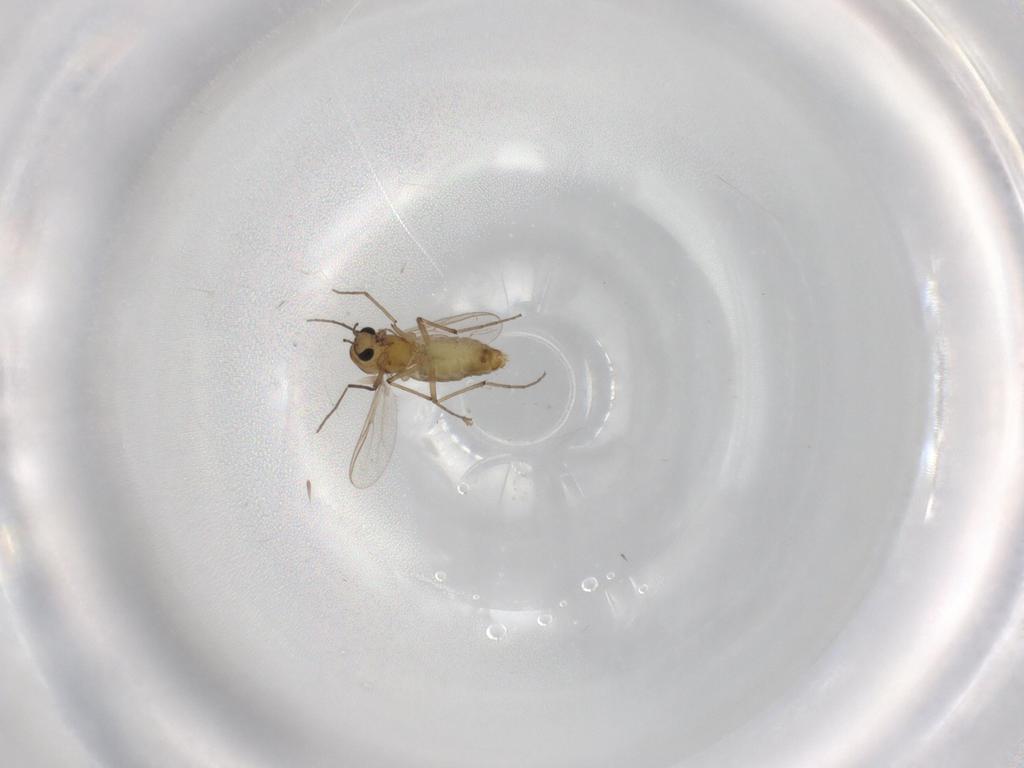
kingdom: Animalia
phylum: Arthropoda
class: Insecta
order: Diptera
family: Chironomidae
